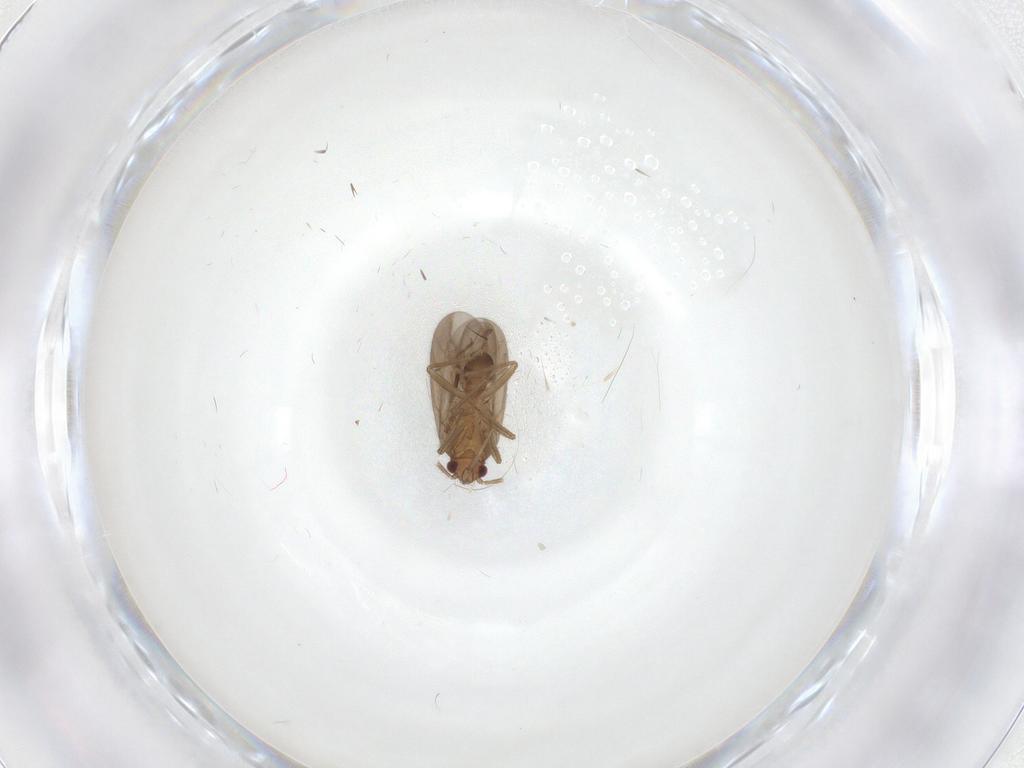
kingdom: Animalia
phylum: Arthropoda
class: Insecta
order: Hemiptera
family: Ceratocombidae
